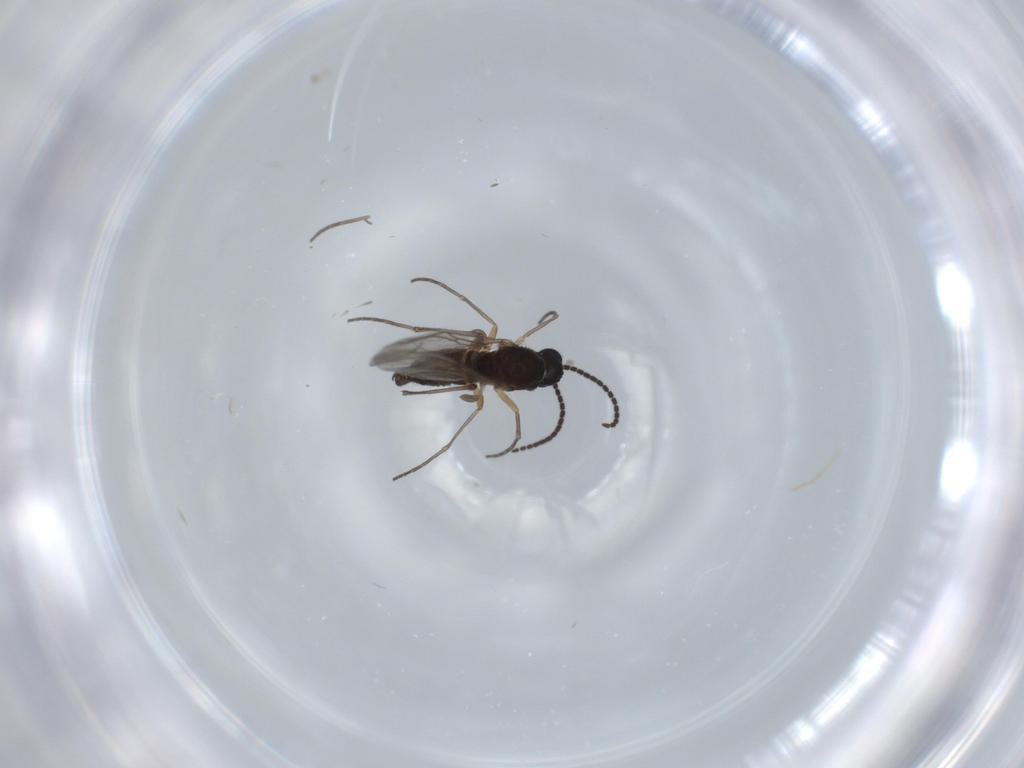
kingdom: Animalia
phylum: Arthropoda
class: Insecta
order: Diptera
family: Sciaridae
